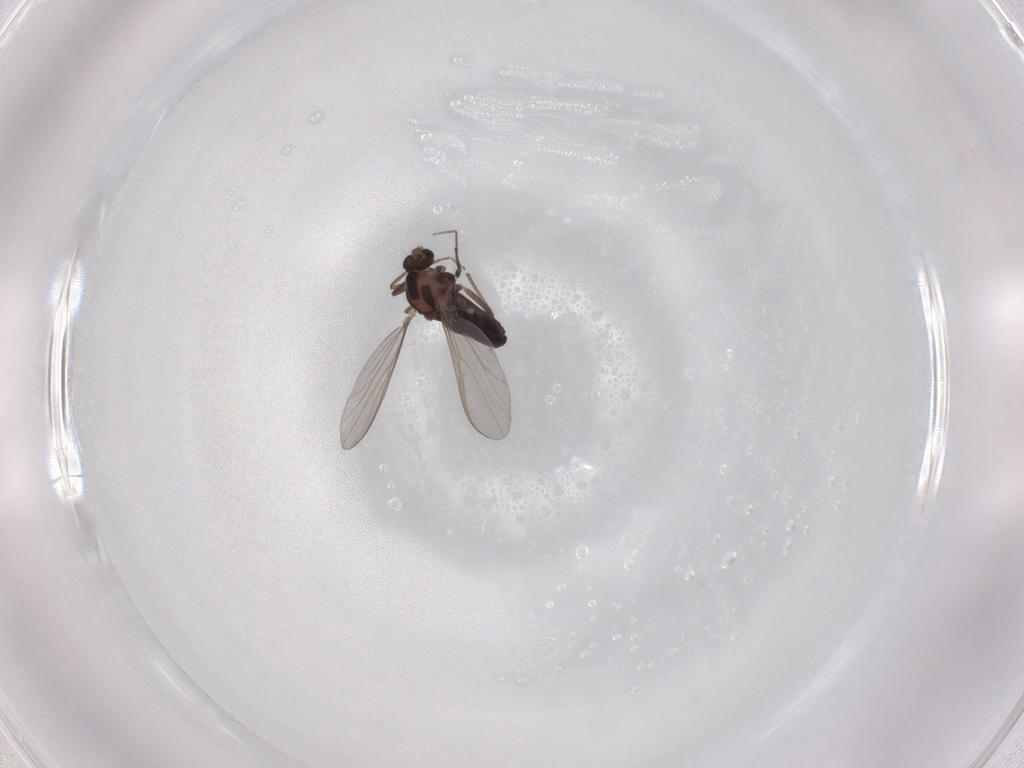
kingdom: Animalia
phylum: Arthropoda
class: Insecta
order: Diptera
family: Chironomidae
